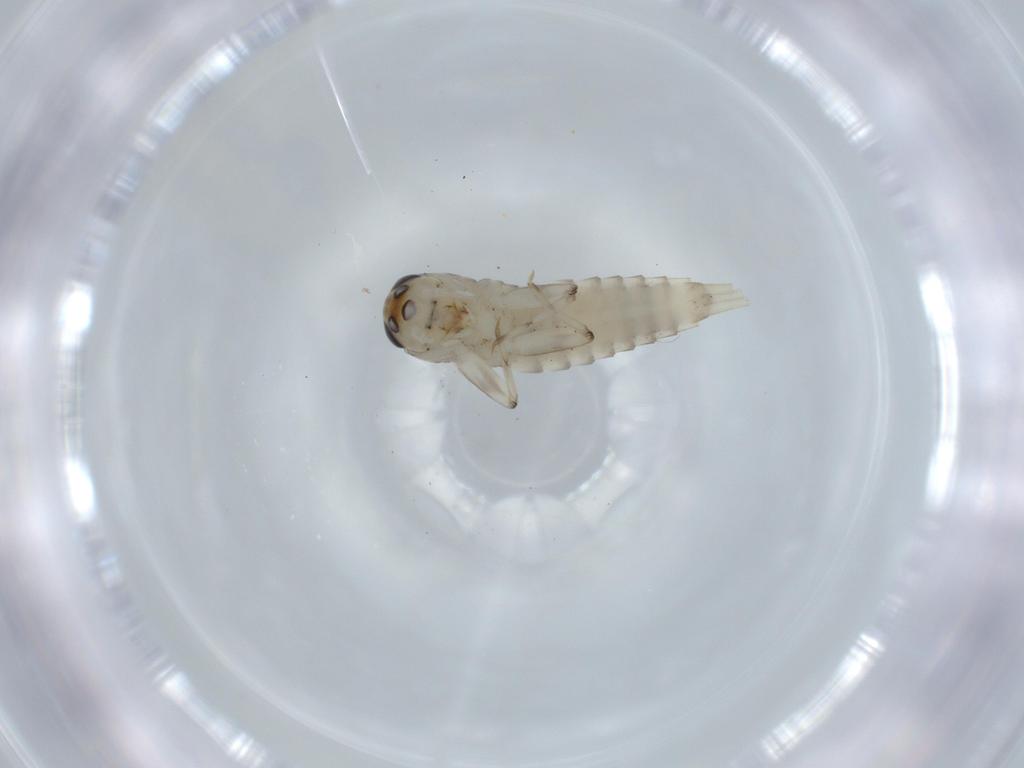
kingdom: Animalia
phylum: Arthropoda
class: Insecta
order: Ephemeroptera
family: Baetidae
